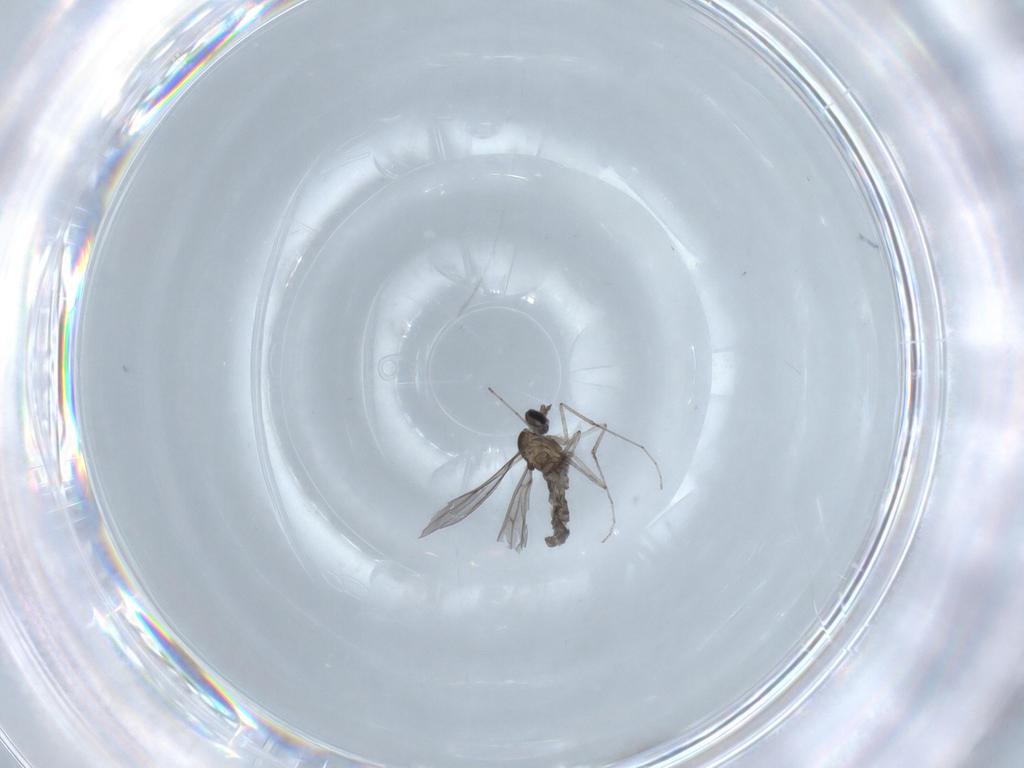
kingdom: Animalia
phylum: Arthropoda
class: Insecta
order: Diptera
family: Cecidomyiidae
